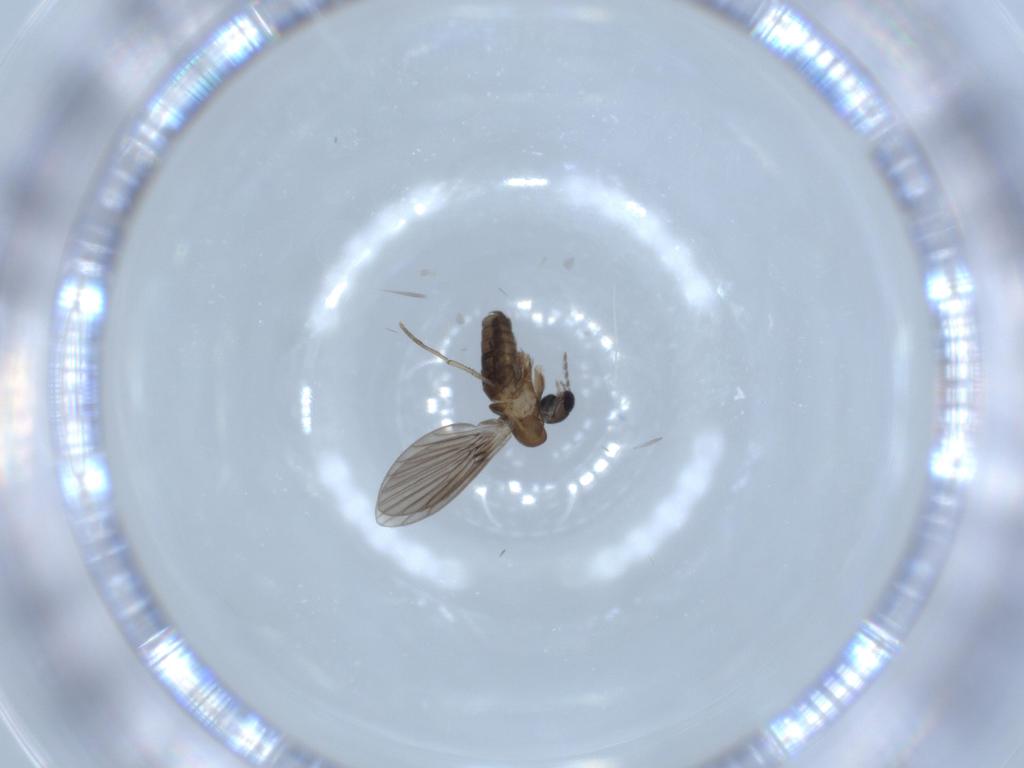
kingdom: Animalia
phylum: Arthropoda
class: Insecta
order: Diptera
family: Psychodidae
